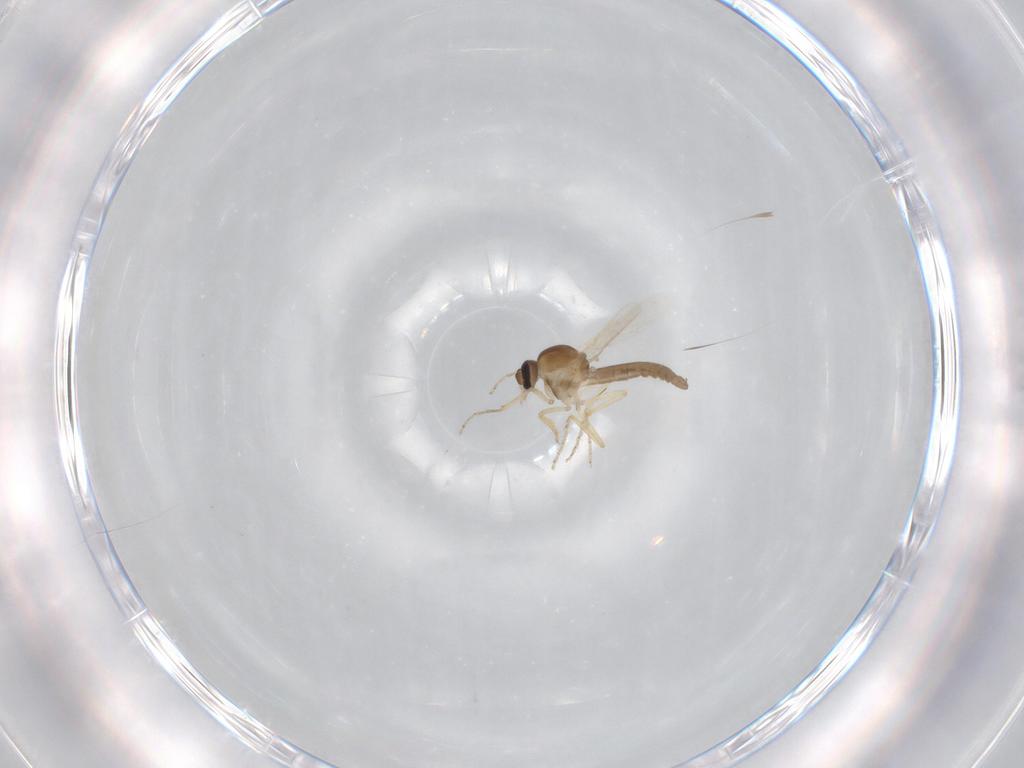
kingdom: Animalia
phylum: Arthropoda
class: Insecta
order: Diptera
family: Ceratopogonidae
